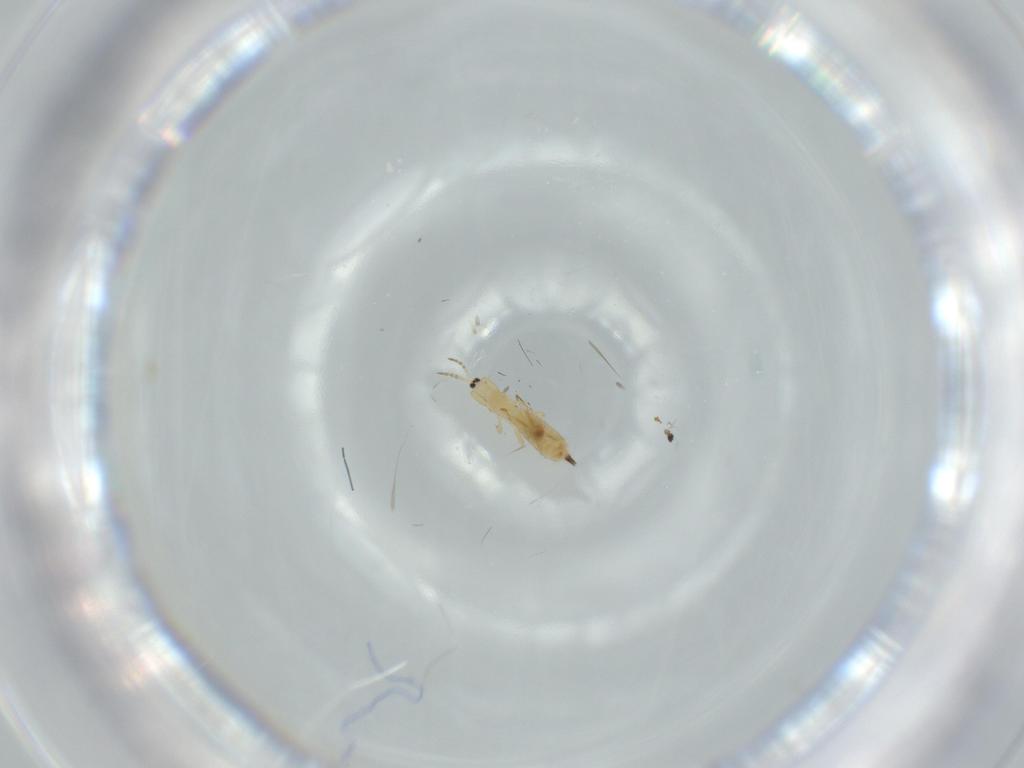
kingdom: Animalia
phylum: Arthropoda
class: Insecta
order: Thysanoptera
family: Phlaeothripidae
